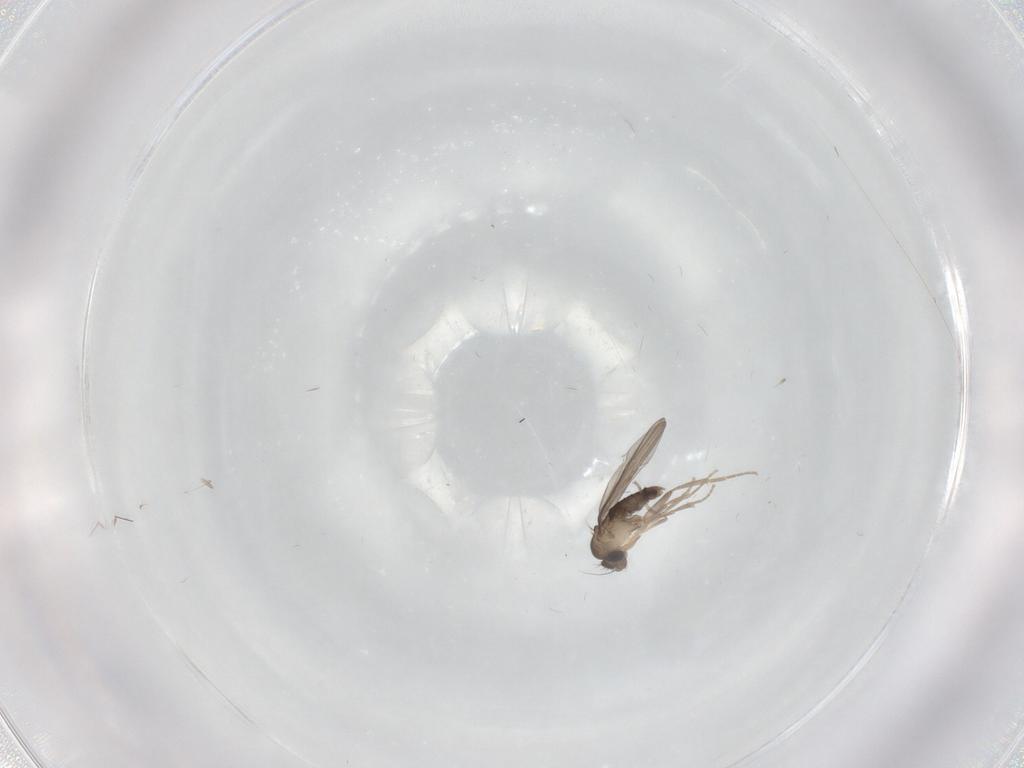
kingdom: Animalia
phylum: Arthropoda
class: Insecta
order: Diptera
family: Phoridae
